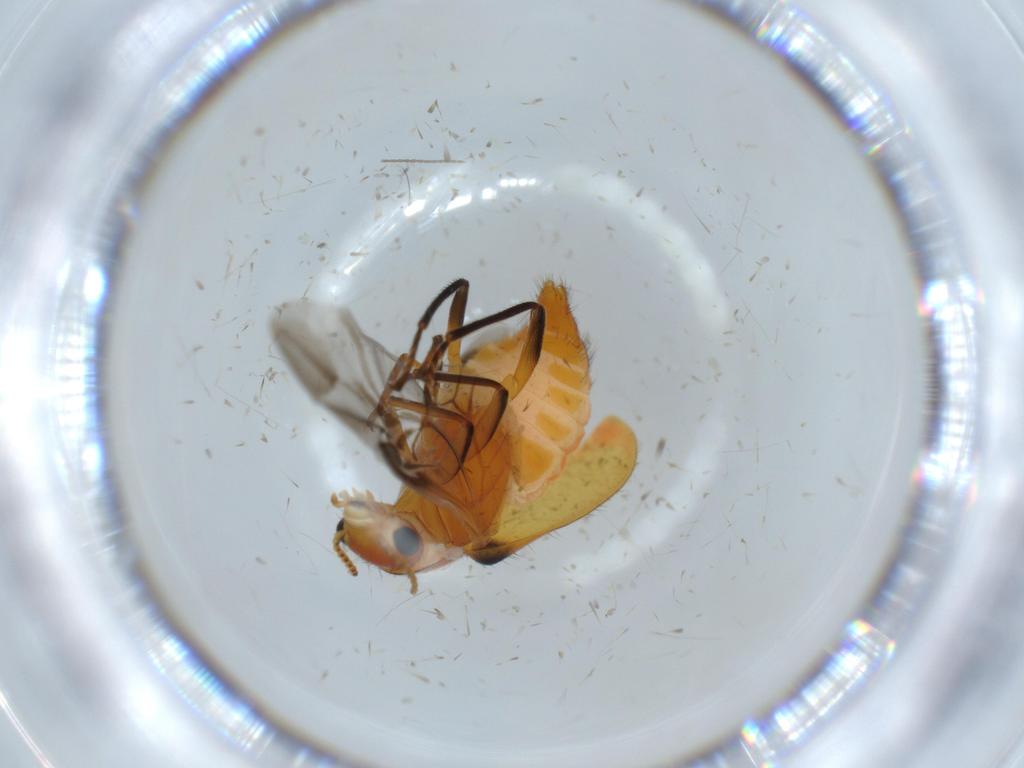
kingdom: Animalia
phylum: Arthropoda
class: Insecta
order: Coleoptera
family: Melyridae
